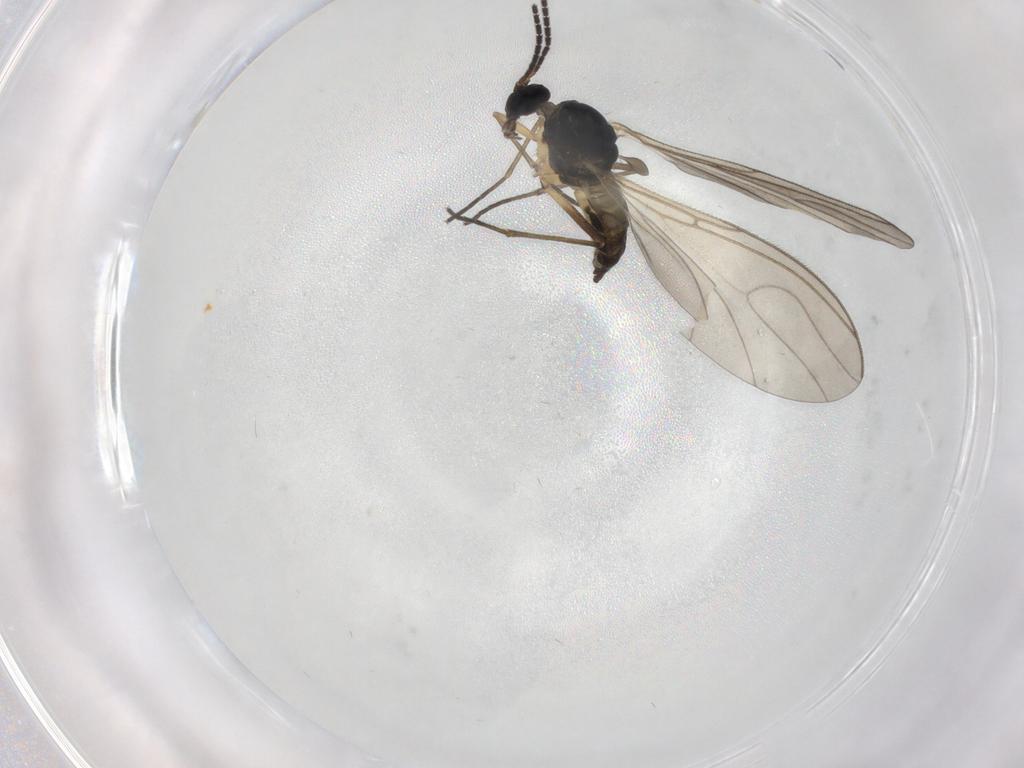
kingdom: Animalia
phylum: Arthropoda
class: Insecta
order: Diptera
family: Sciaridae
